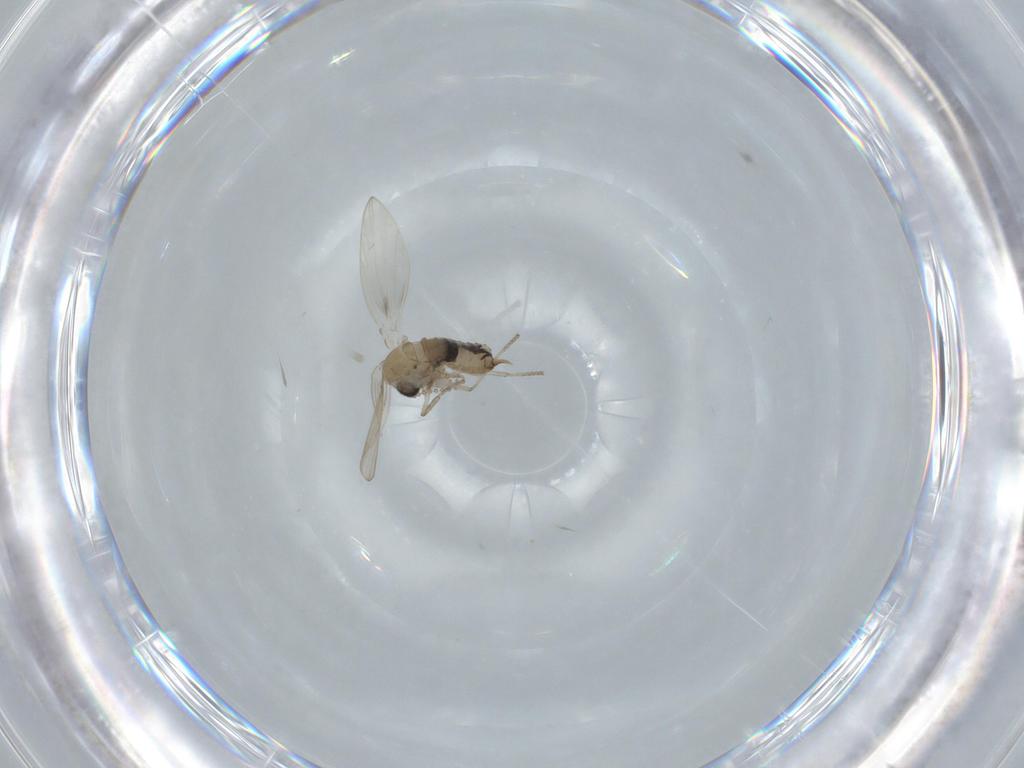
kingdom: Animalia
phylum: Arthropoda
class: Insecta
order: Diptera
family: Psychodidae
